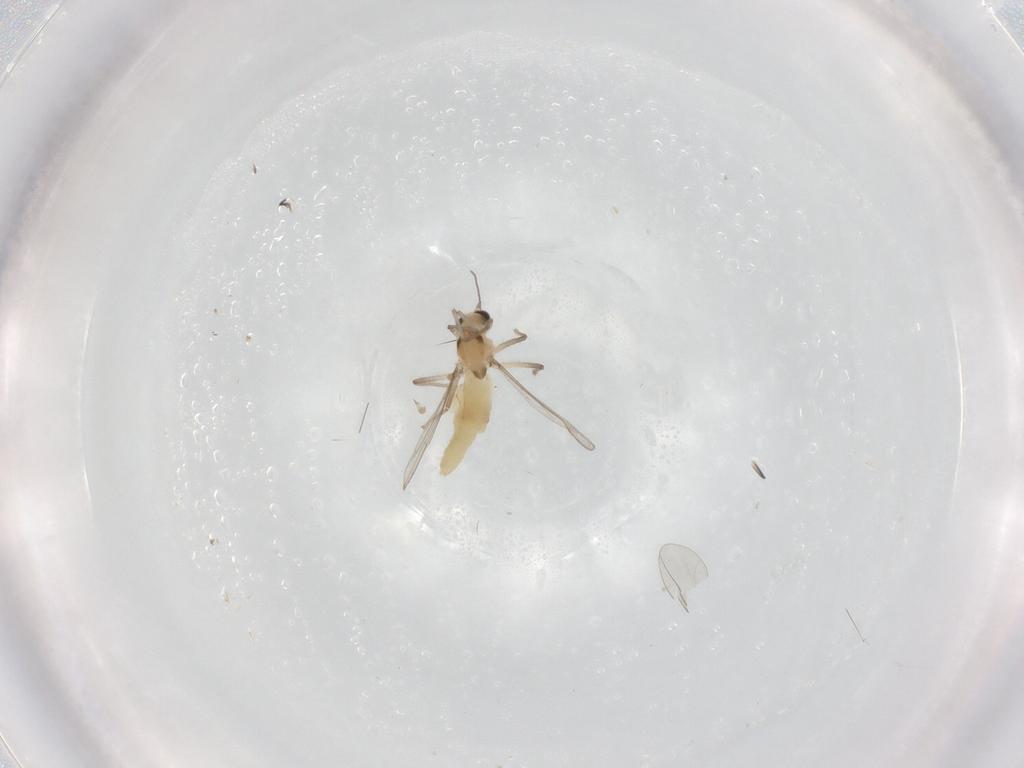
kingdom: Animalia
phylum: Arthropoda
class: Insecta
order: Diptera
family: Chironomidae
